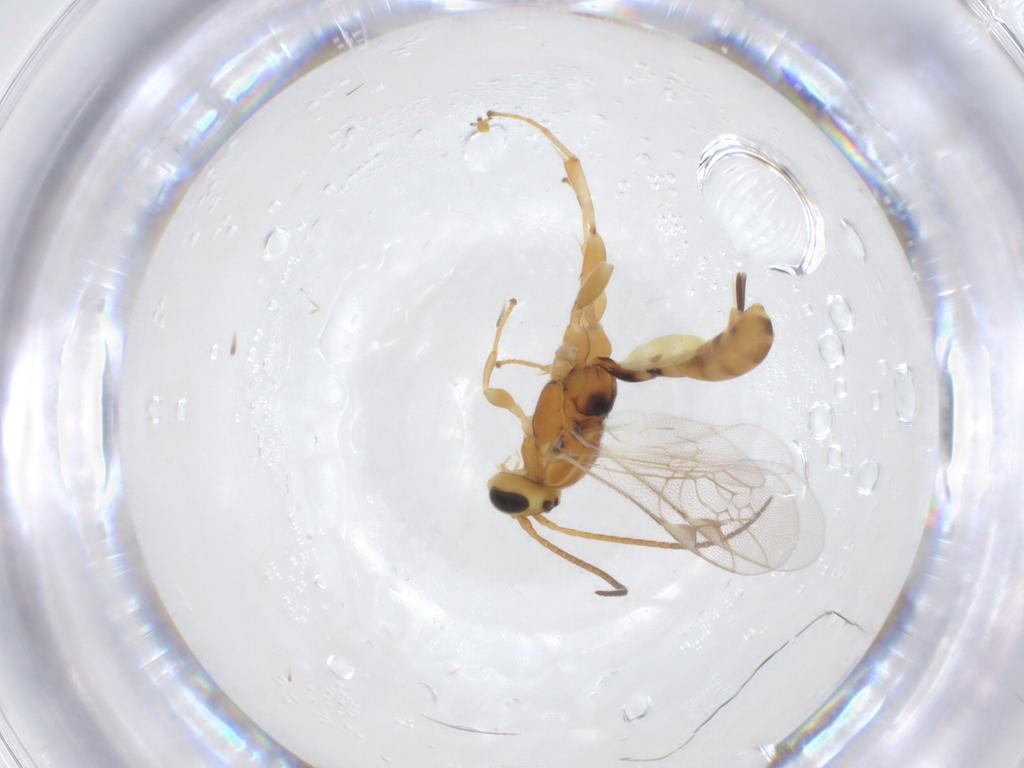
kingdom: Animalia
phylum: Arthropoda
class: Insecta
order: Hymenoptera
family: Ichneumonidae
